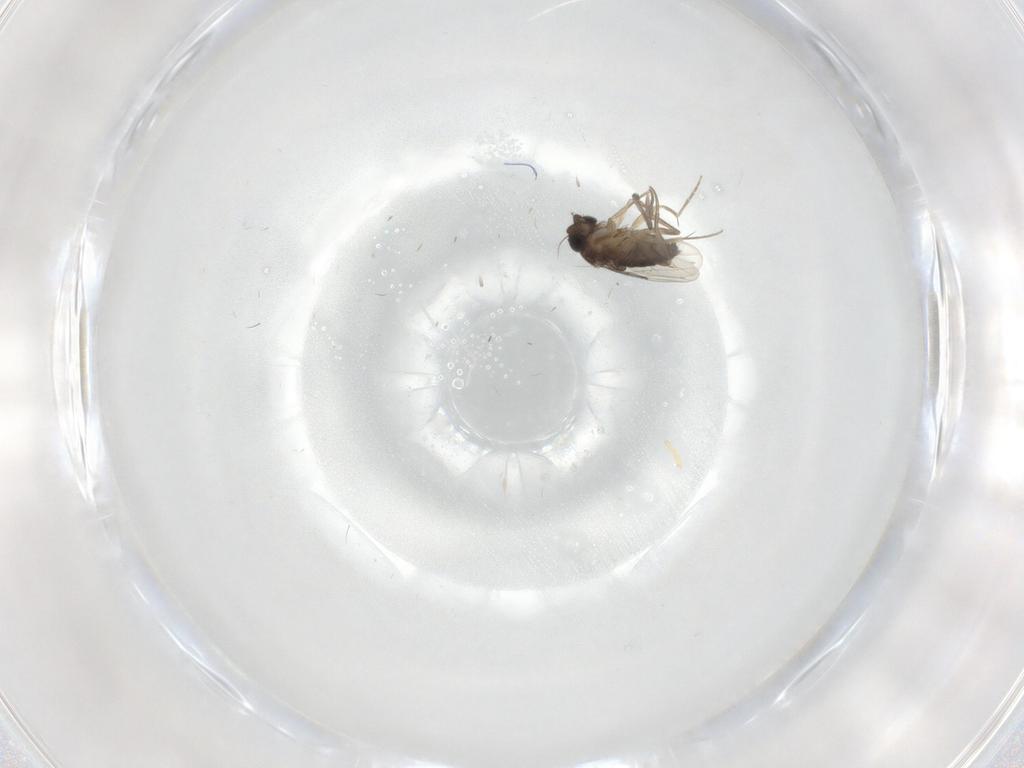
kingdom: Animalia
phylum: Arthropoda
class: Insecta
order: Diptera
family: Phoridae
